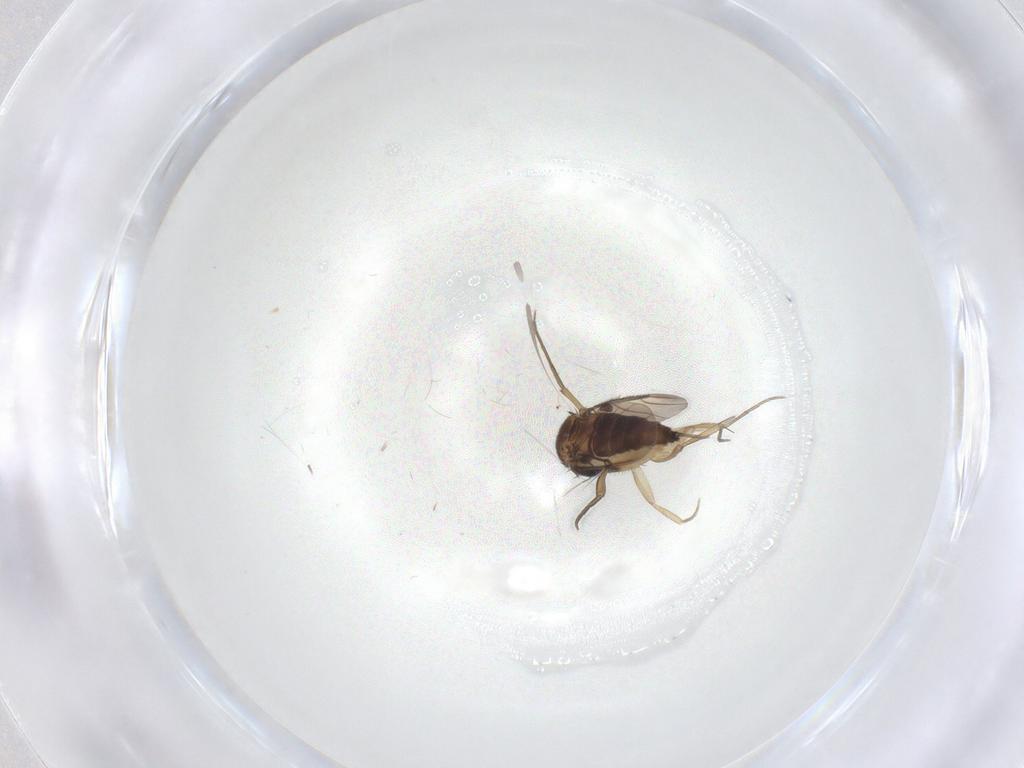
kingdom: Animalia
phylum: Arthropoda
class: Insecta
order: Diptera
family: Phoridae
